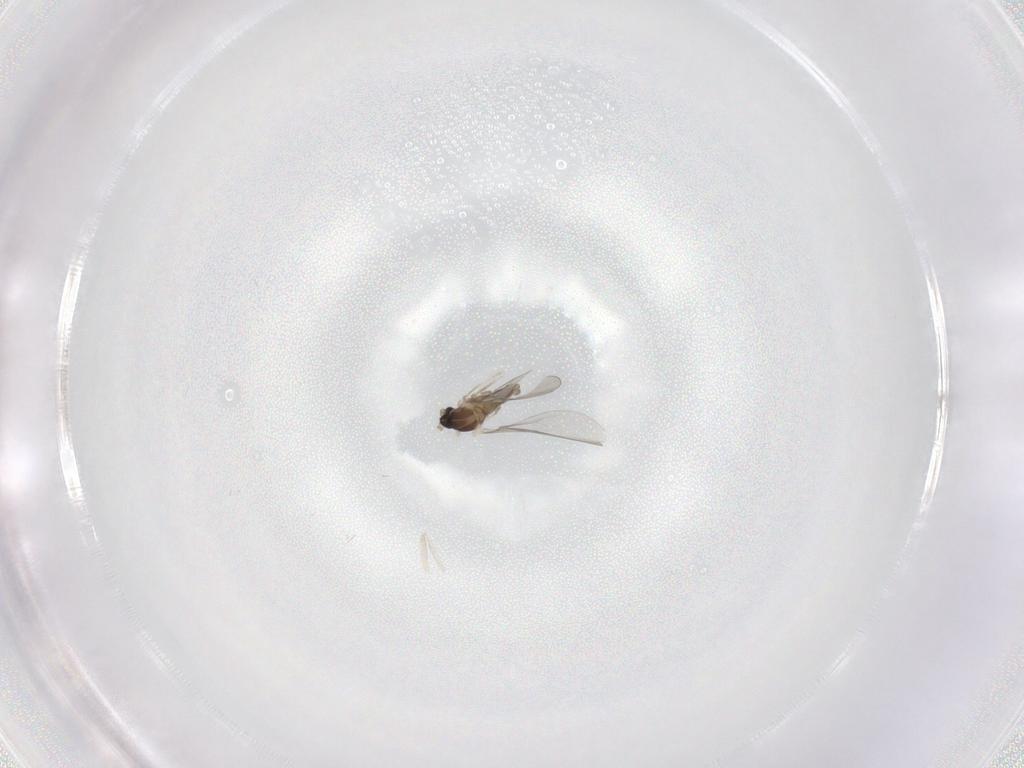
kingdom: Animalia
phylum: Arthropoda
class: Insecta
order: Diptera
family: Cecidomyiidae
